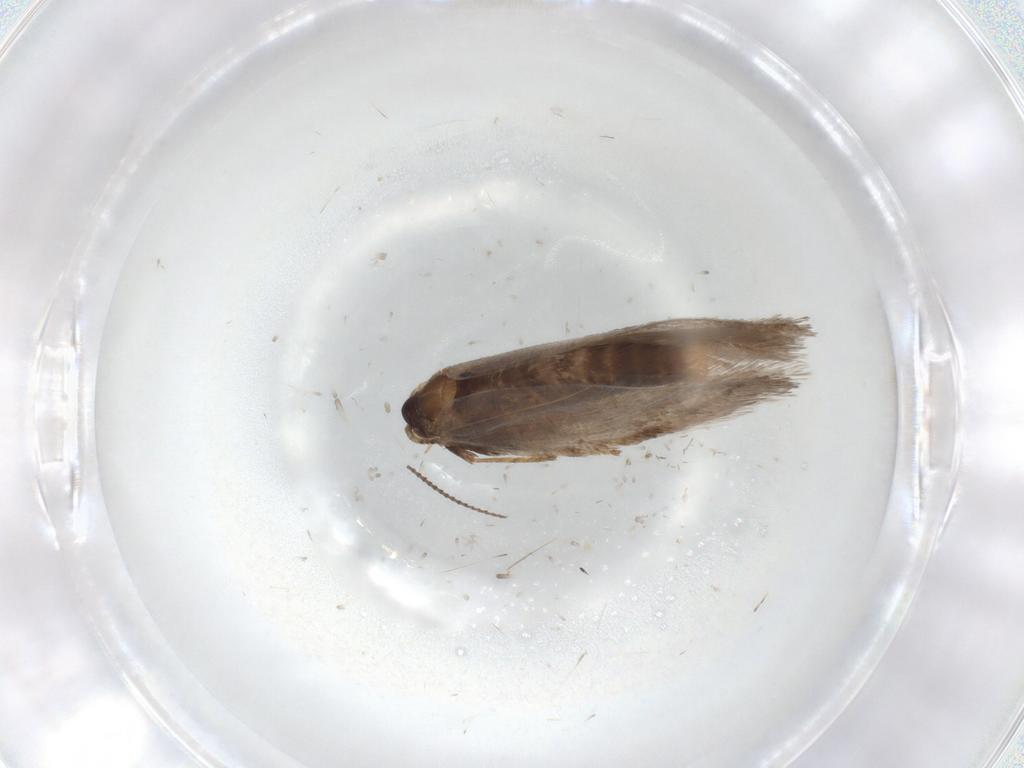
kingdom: Animalia
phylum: Arthropoda
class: Insecta
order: Lepidoptera
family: Nepticulidae
